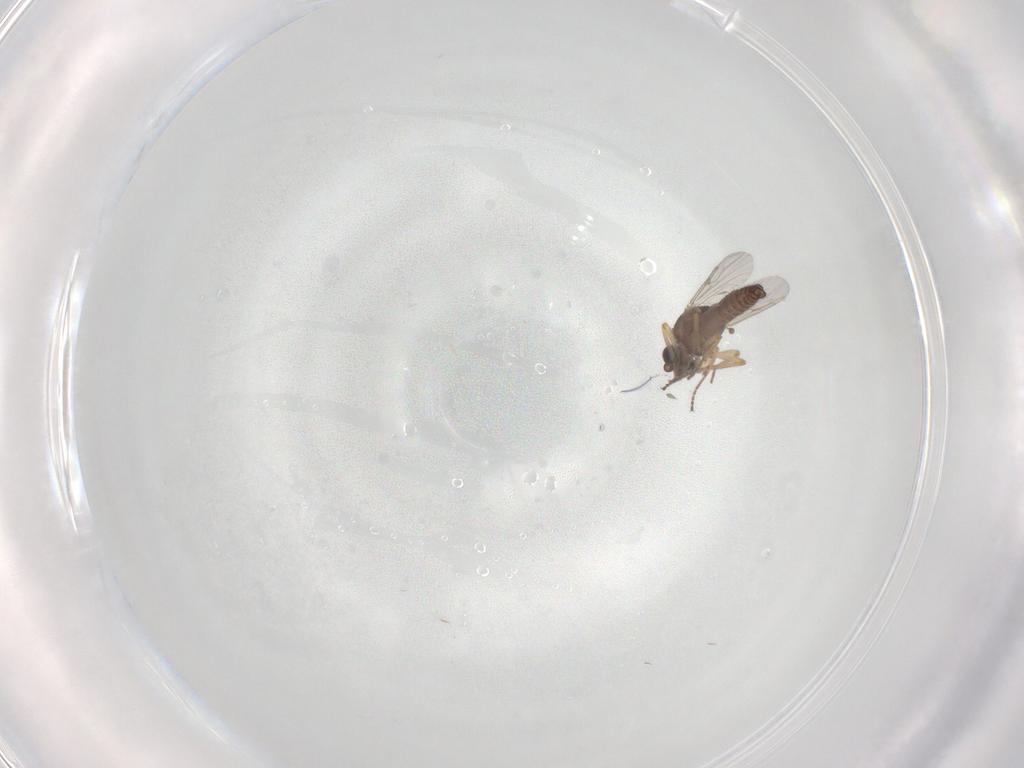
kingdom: Animalia
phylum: Arthropoda
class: Insecta
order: Diptera
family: Ceratopogonidae
